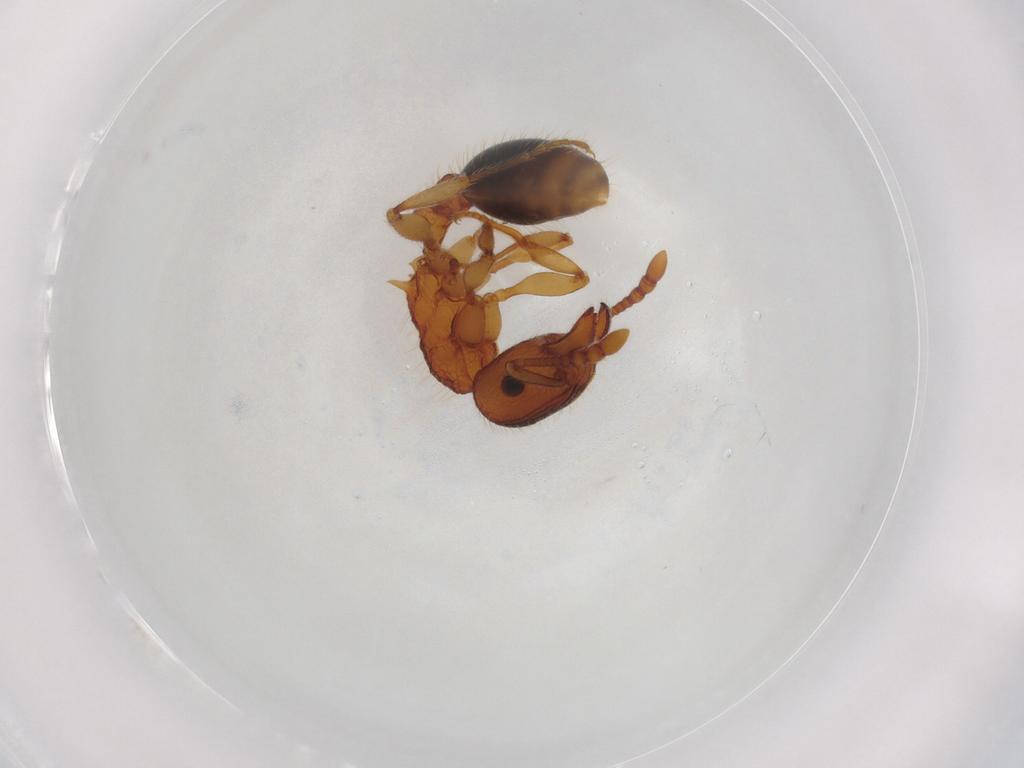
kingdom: Animalia
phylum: Arthropoda
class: Insecta
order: Hymenoptera
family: Formicidae
